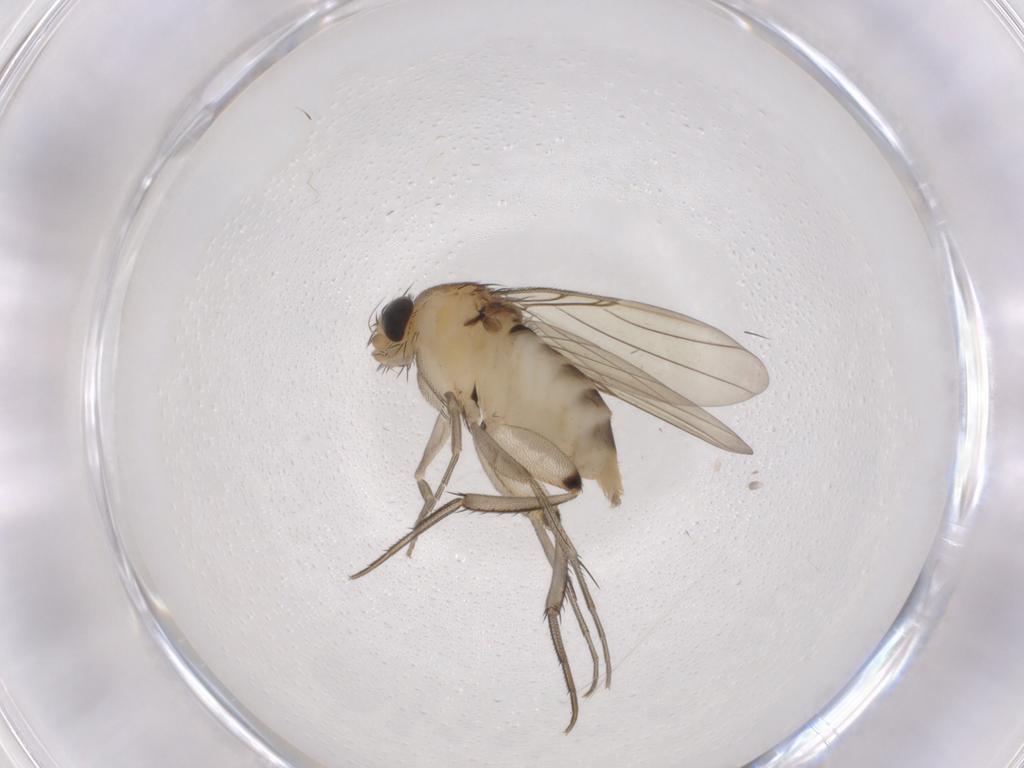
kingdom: Animalia
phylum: Arthropoda
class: Insecta
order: Diptera
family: Phoridae
